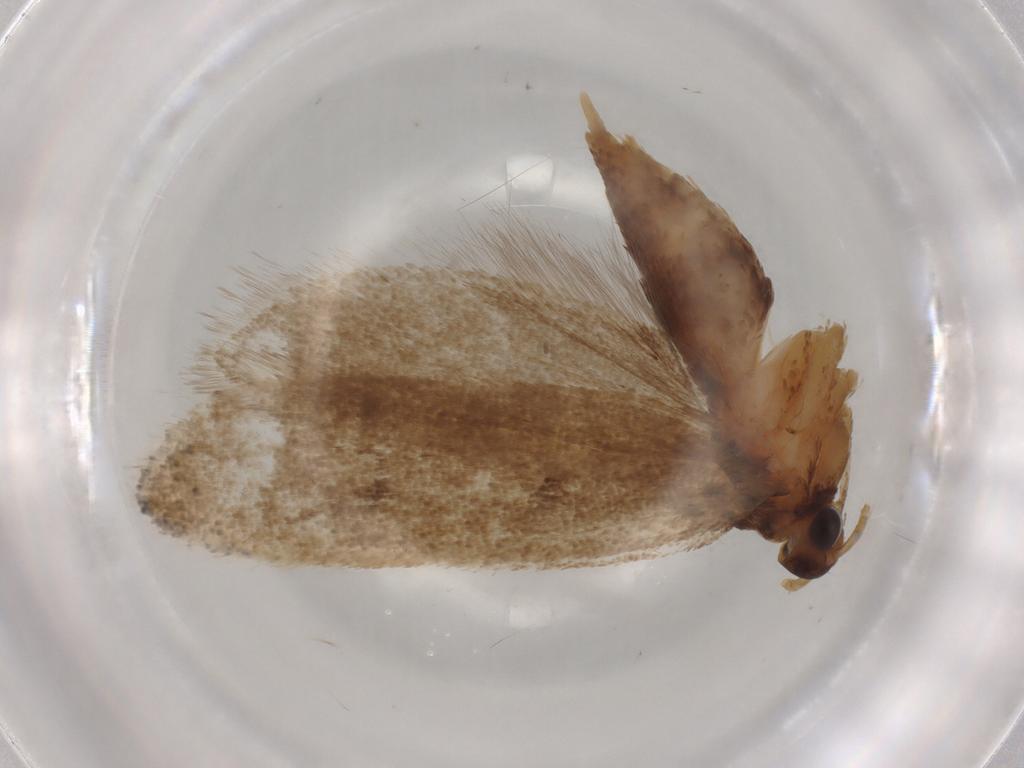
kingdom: Animalia
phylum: Arthropoda
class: Insecta
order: Lepidoptera
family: Lecithoceridae
